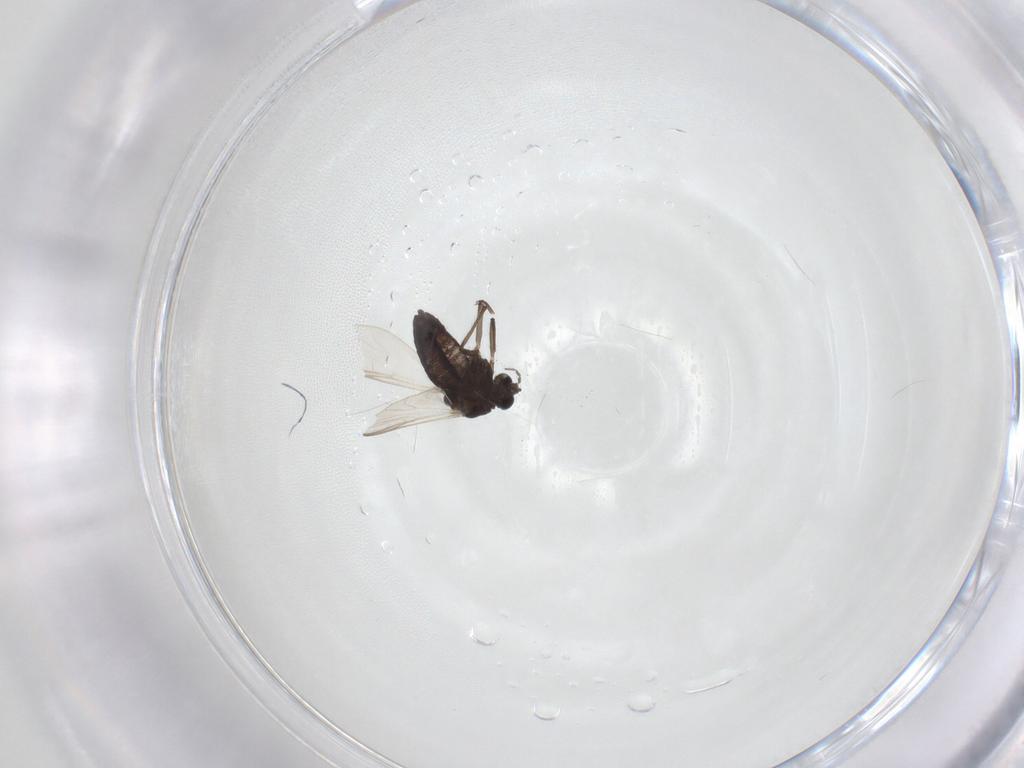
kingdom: Animalia
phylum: Arthropoda
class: Insecta
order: Diptera
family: Chironomidae
